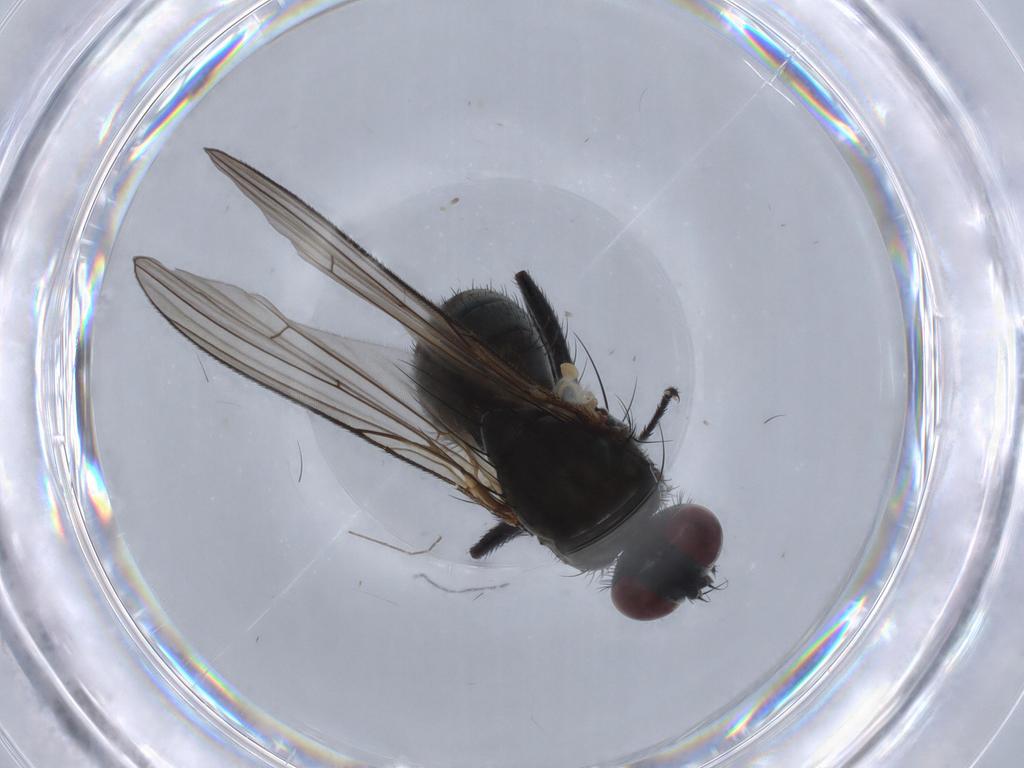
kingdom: Animalia
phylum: Arthropoda
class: Insecta
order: Diptera
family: Muscidae
